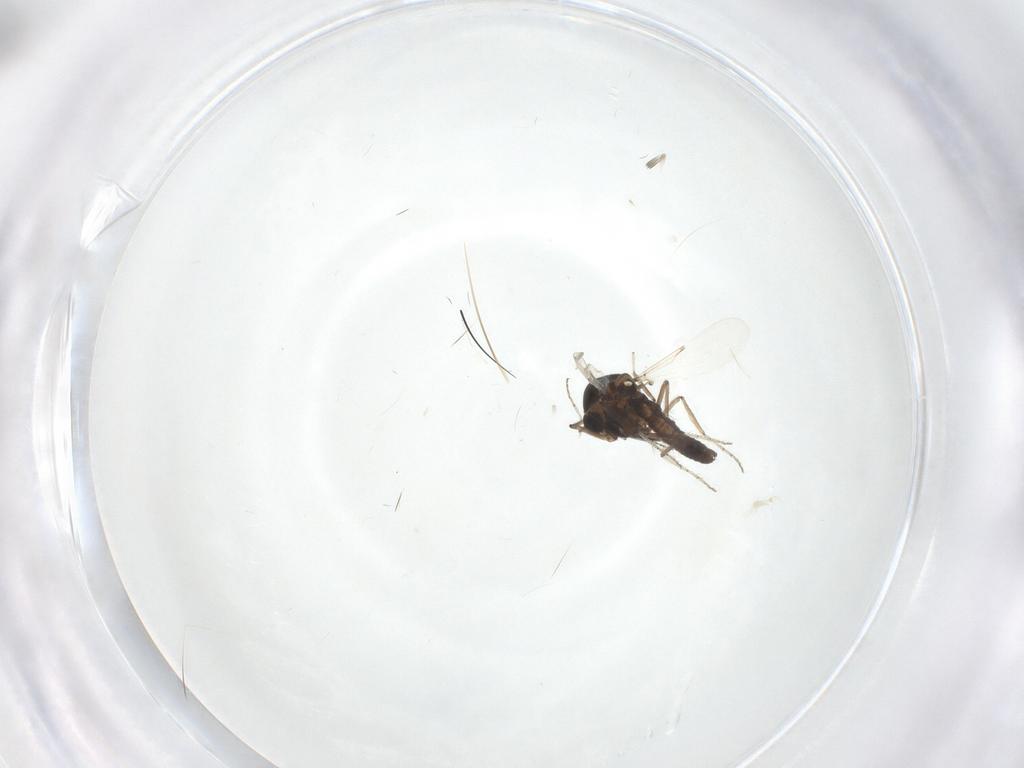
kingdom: Animalia
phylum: Arthropoda
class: Insecta
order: Diptera
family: Ceratopogonidae
